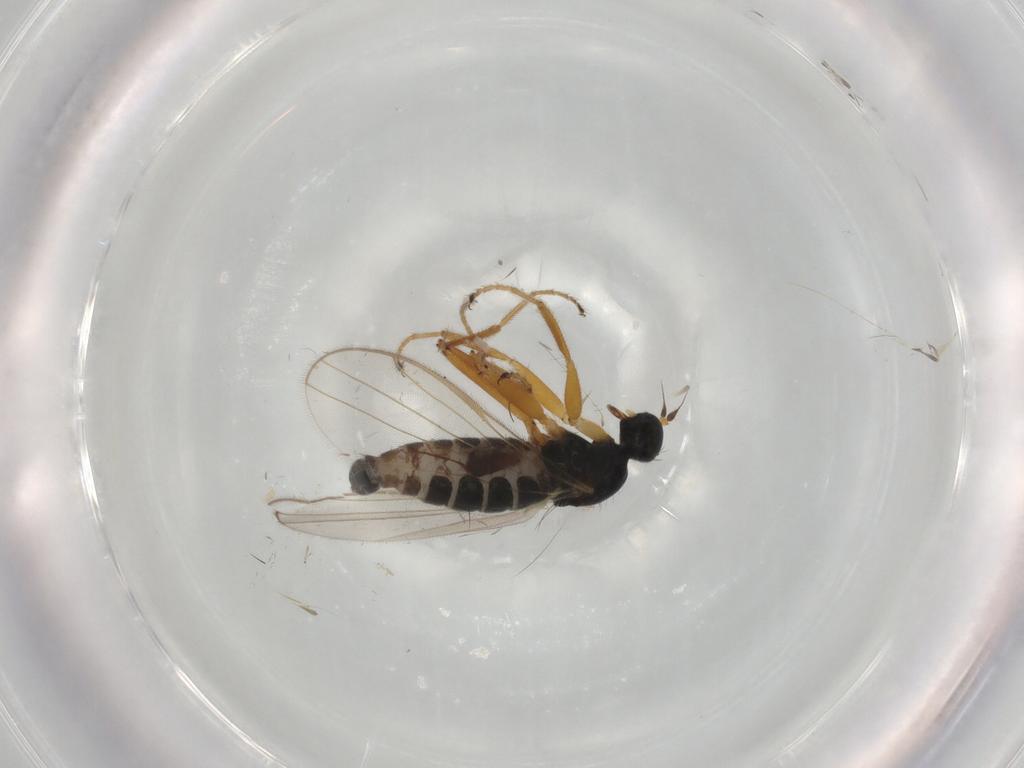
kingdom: Animalia
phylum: Arthropoda
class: Insecta
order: Diptera
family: Hybotidae
